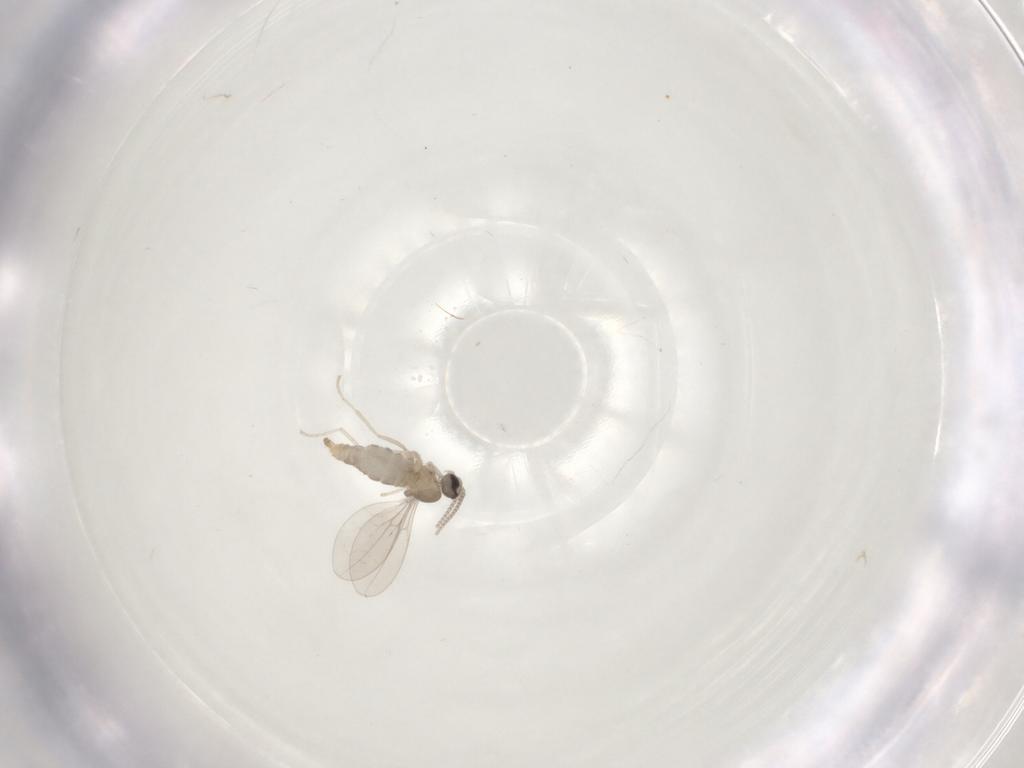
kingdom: Animalia
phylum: Arthropoda
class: Insecta
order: Diptera
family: Cecidomyiidae
